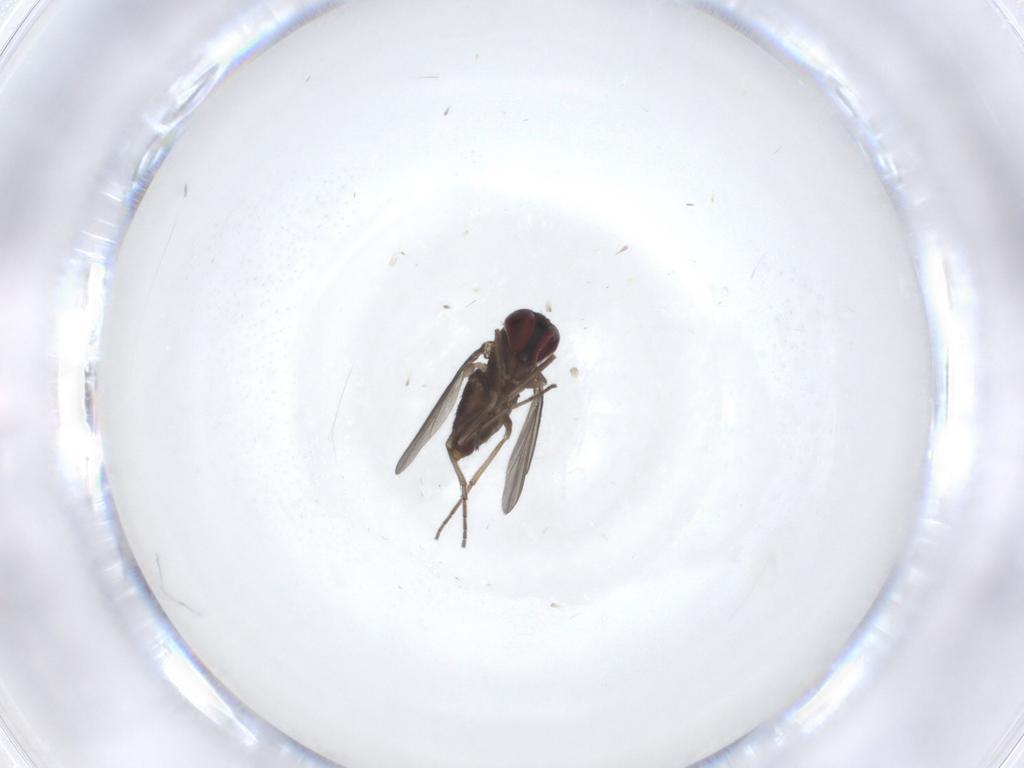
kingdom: Animalia
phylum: Arthropoda
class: Insecta
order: Diptera
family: Dolichopodidae
